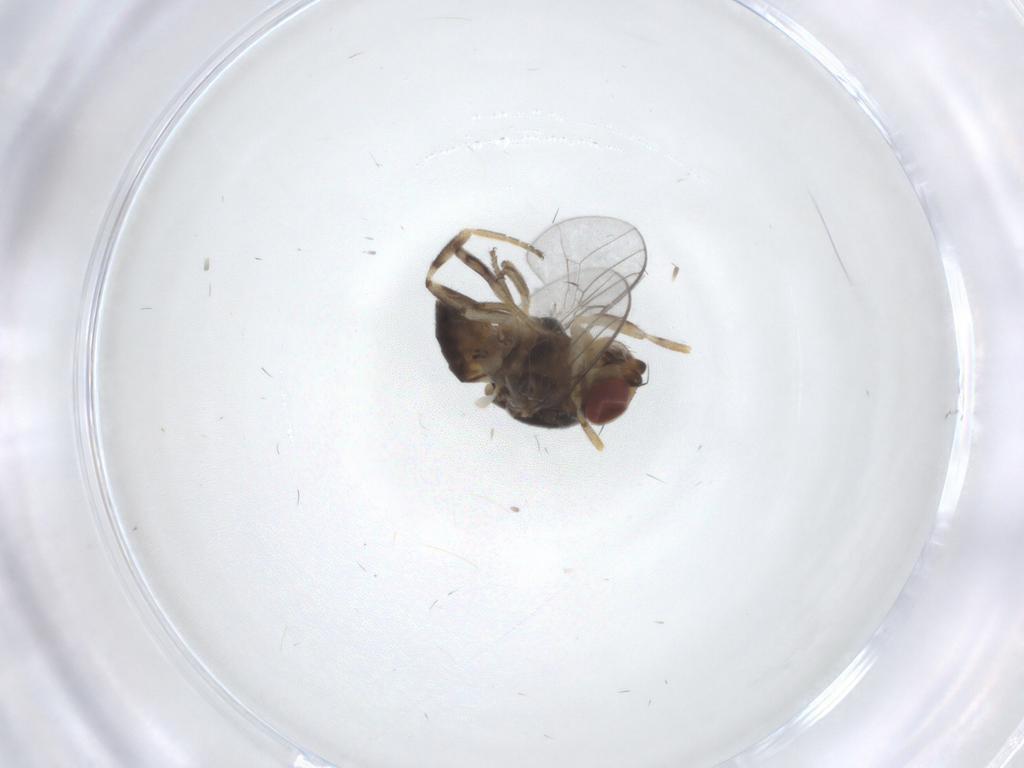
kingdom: Animalia
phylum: Arthropoda
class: Insecta
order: Diptera
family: Chloropidae
